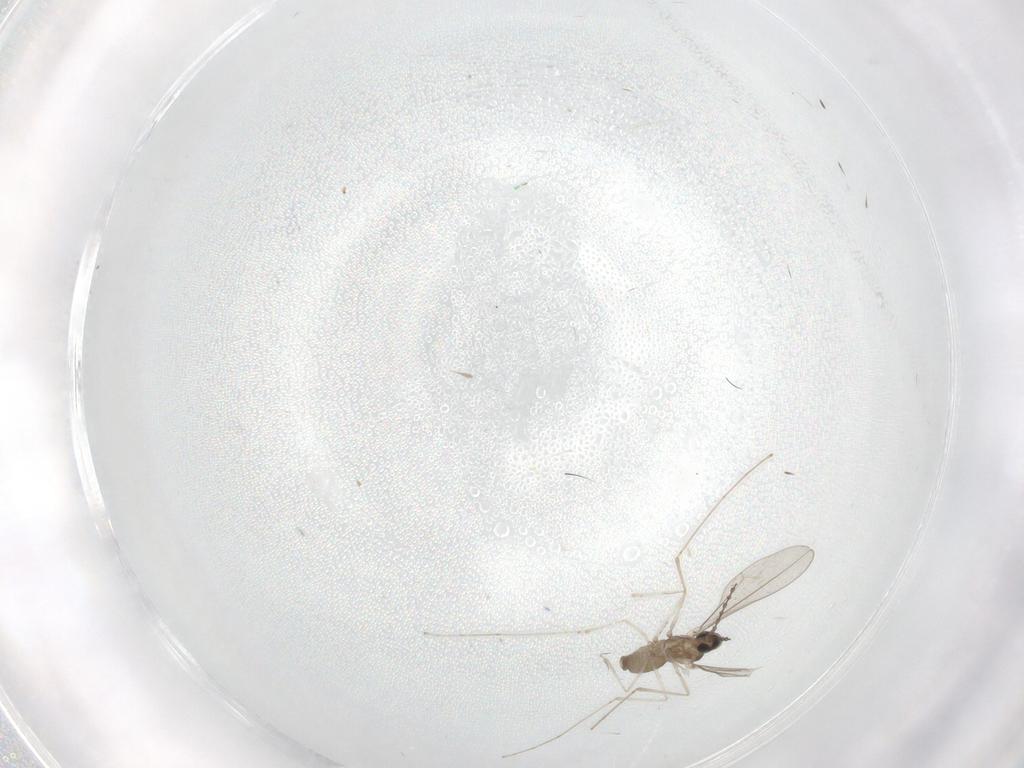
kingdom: Animalia
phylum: Arthropoda
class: Insecta
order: Diptera
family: Cecidomyiidae
